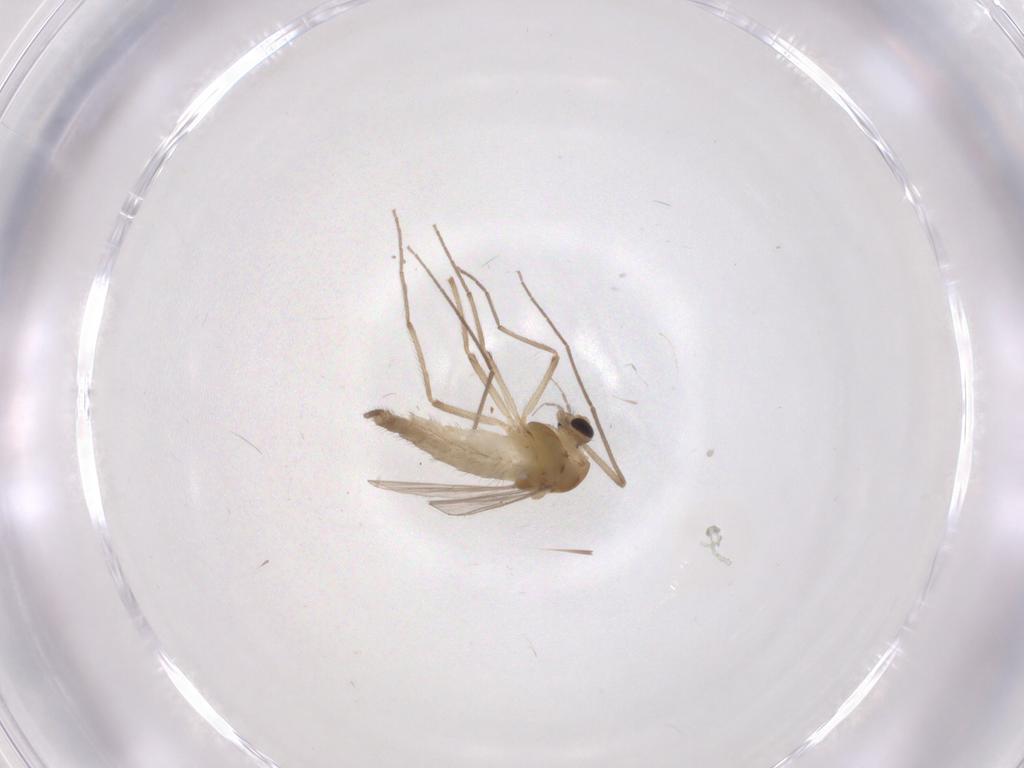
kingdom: Animalia
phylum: Arthropoda
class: Insecta
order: Diptera
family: Chironomidae
